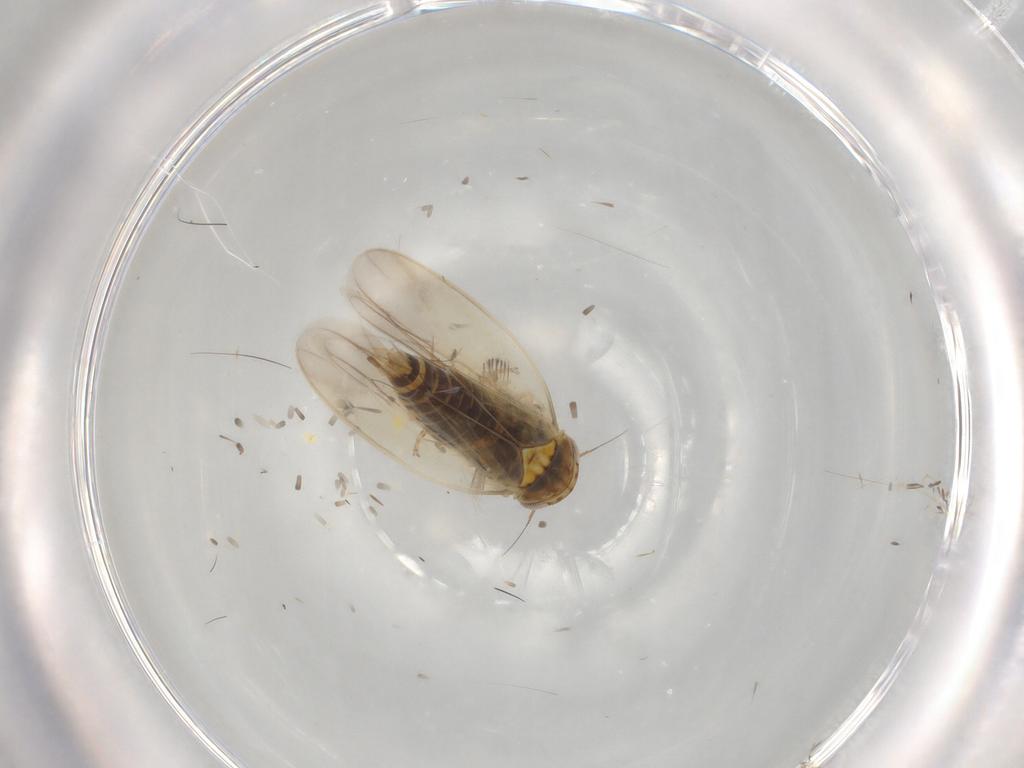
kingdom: Animalia
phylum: Arthropoda
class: Insecta
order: Hemiptera
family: Cicadellidae
